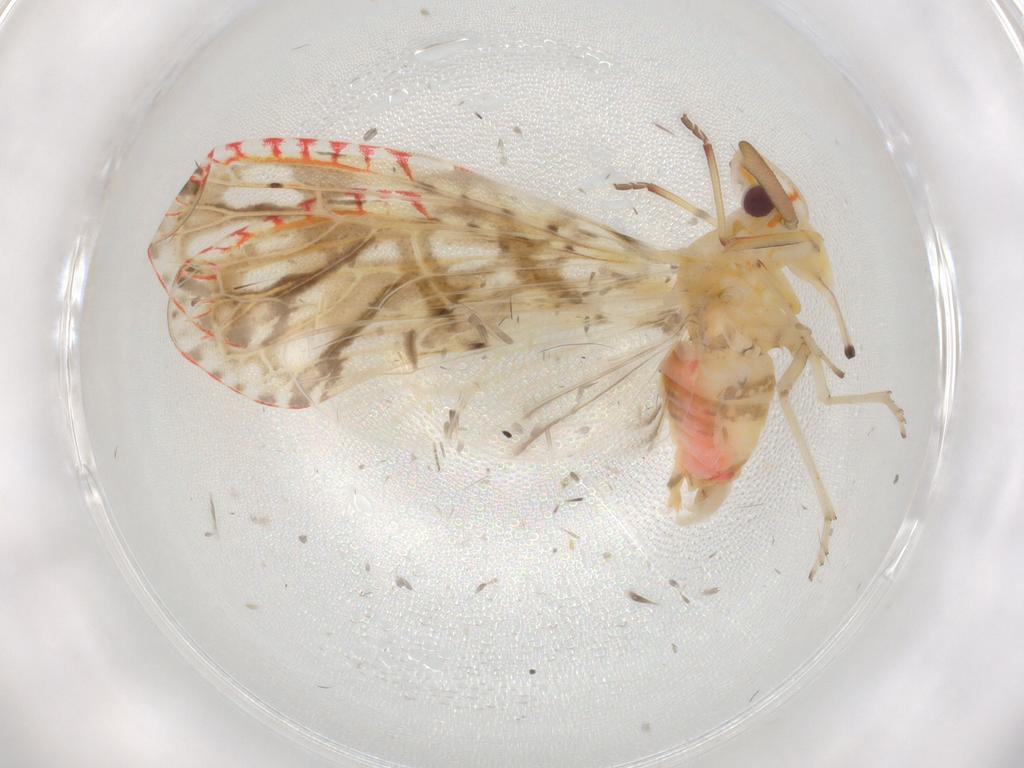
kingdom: Animalia
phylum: Arthropoda
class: Insecta
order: Hemiptera
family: Derbidae
